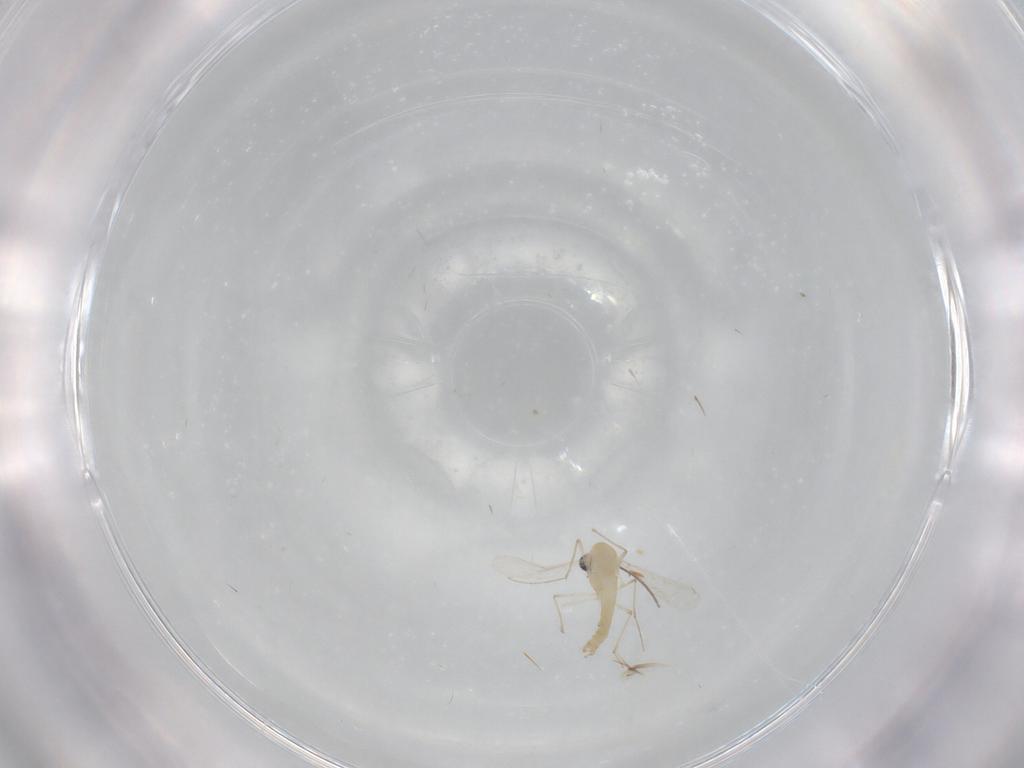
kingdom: Animalia
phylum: Arthropoda
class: Insecta
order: Diptera
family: Chironomidae
